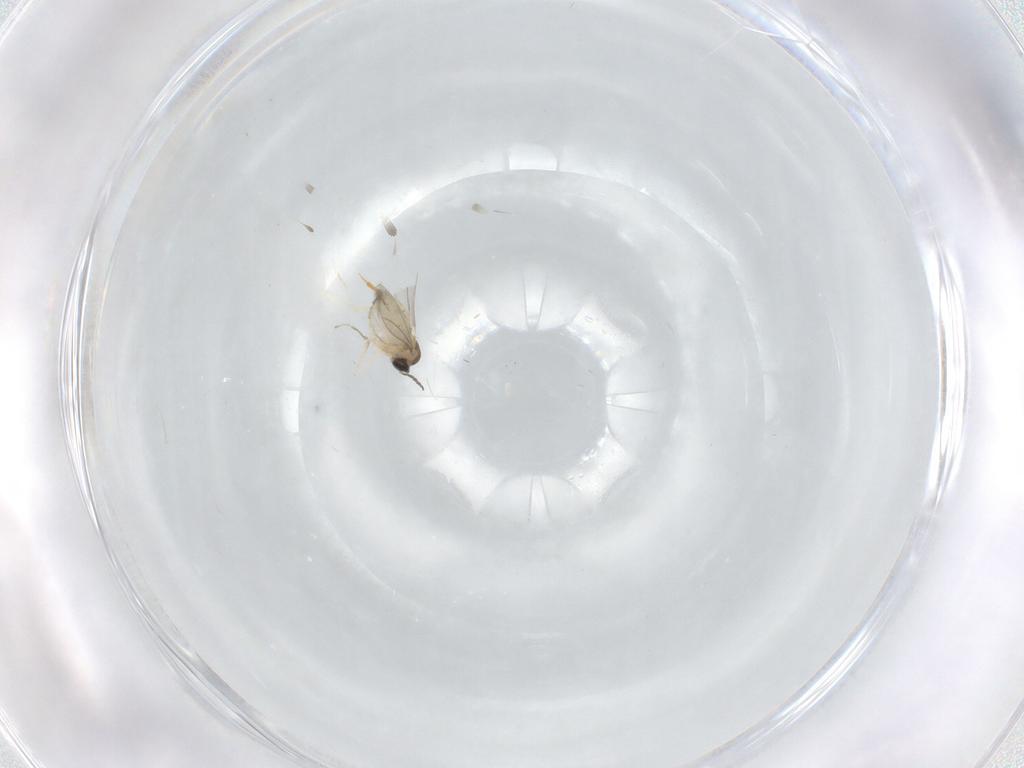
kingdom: Animalia
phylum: Arthropoda
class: Insecta
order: Diptera
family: Cecidomyiidae
